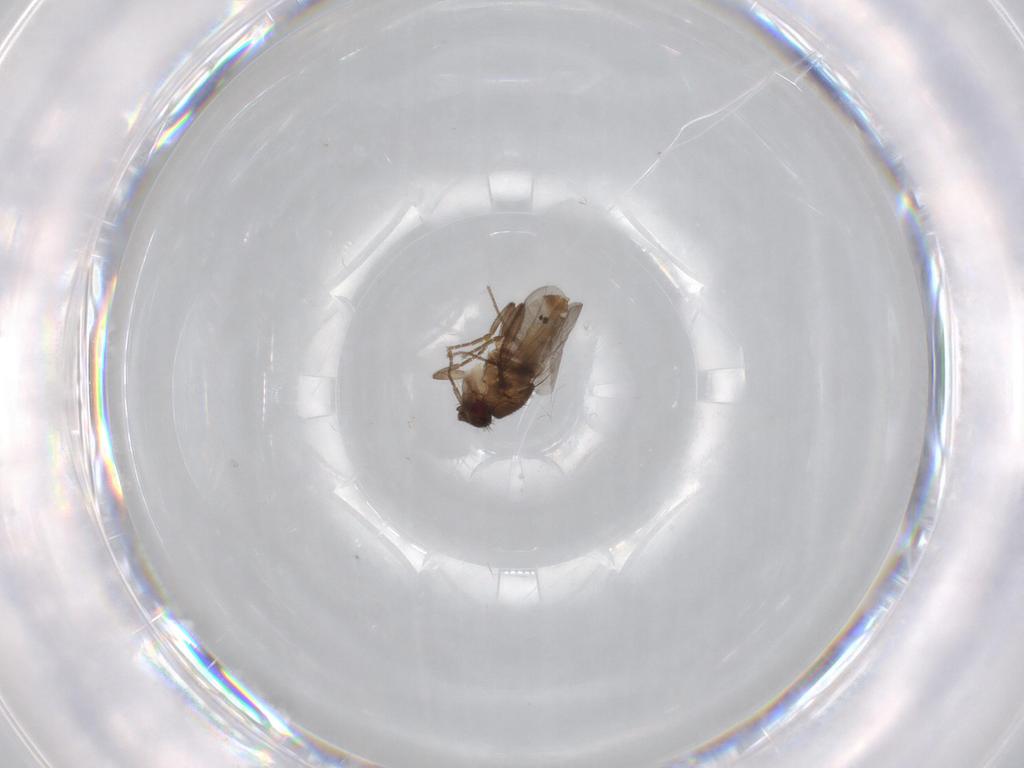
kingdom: Animalia
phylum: Arthropoda
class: Insecta
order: Diptera
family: Sphaeroceridae
